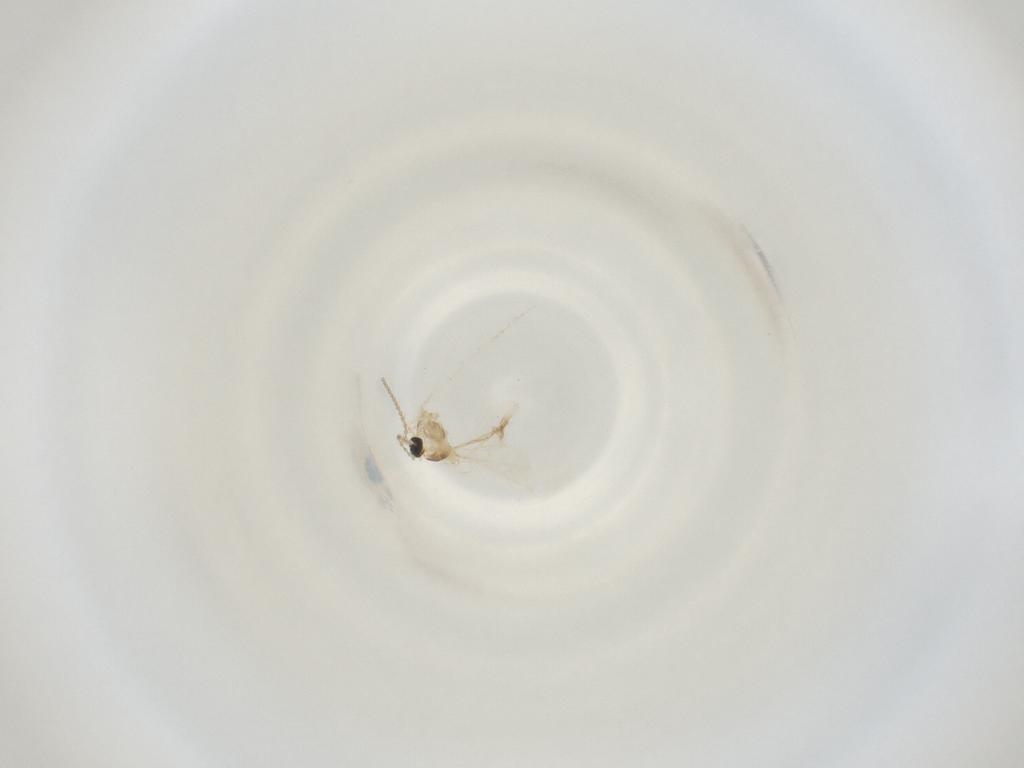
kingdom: Animalia
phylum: Arthropoda
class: Insecta
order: Diptera
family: Cecidomyiidae
